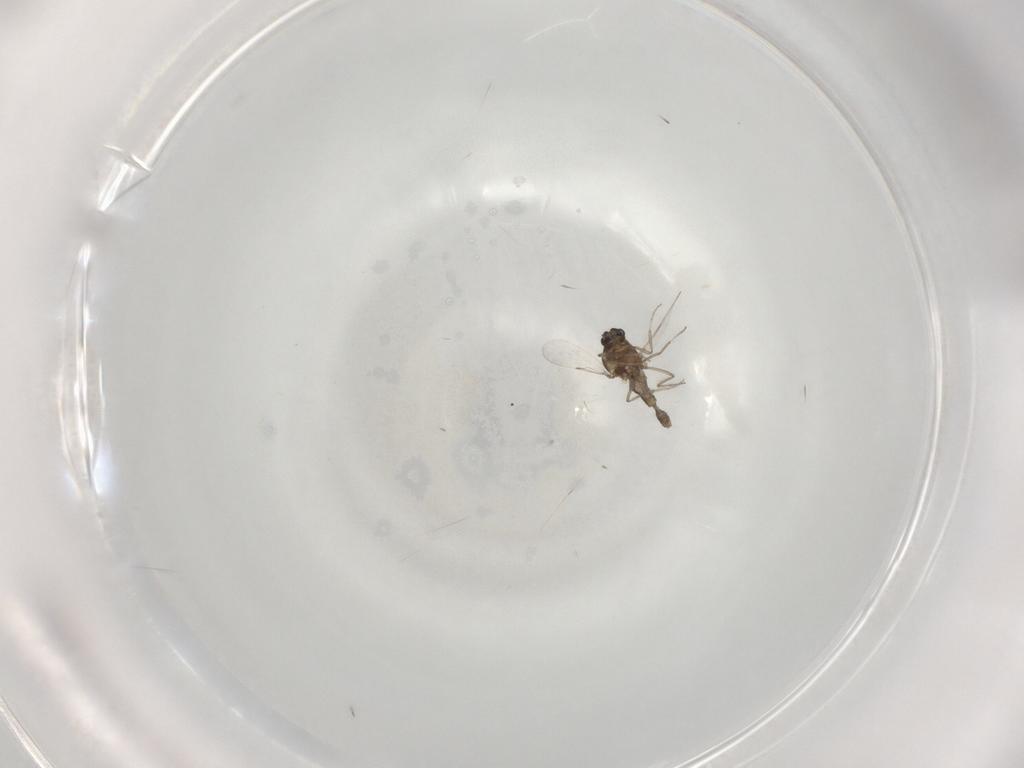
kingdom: Animalia
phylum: Arthropoda
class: Insecta
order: Diptera
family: Ceratopogonidae
